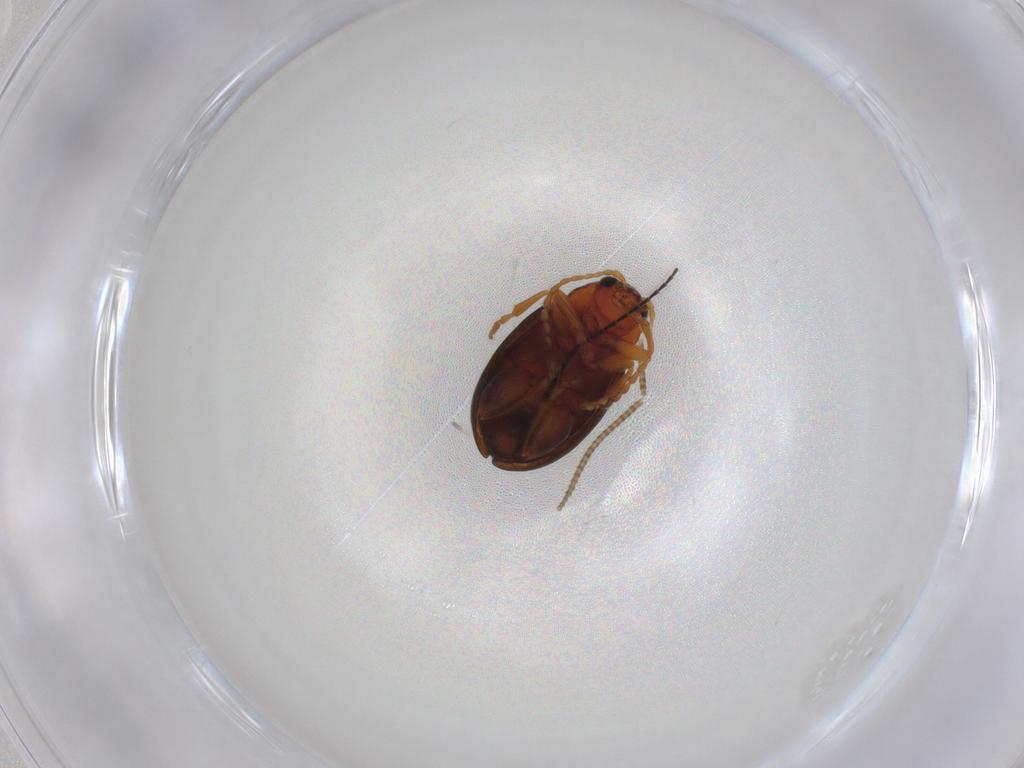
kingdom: Animalia
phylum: Arthropoda
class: Insecta
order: Coleoptera
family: Chrysomelidae
